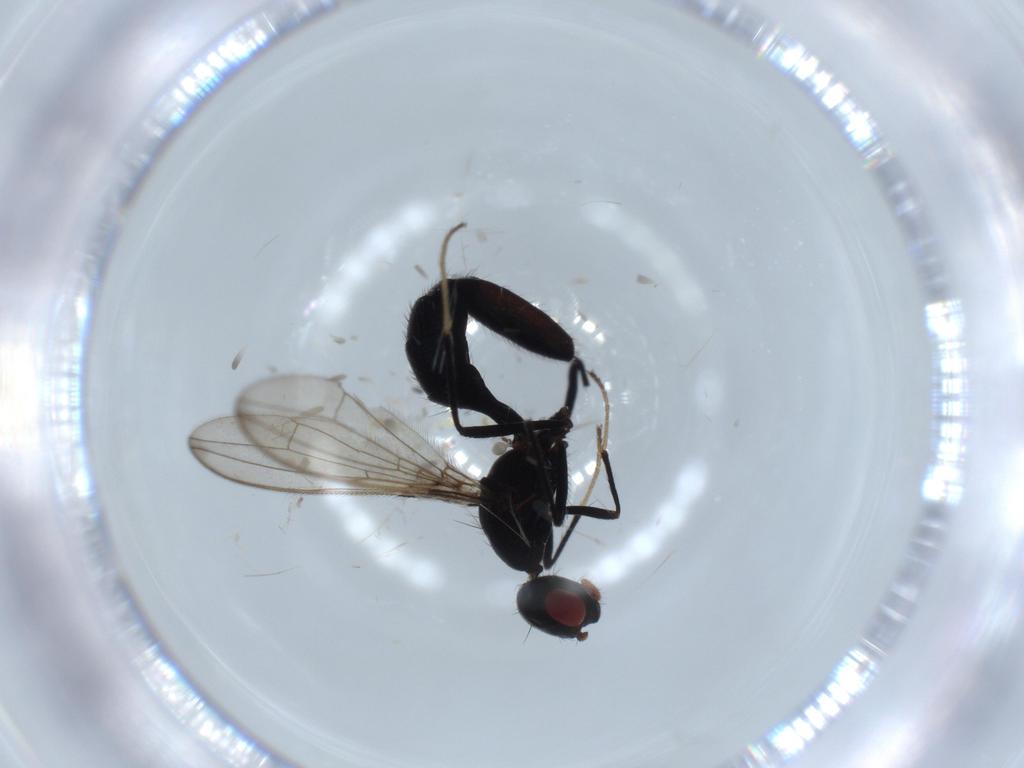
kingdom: Animalia
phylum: Arthropoda
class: Insecta
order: Diptera
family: Richardiidae
